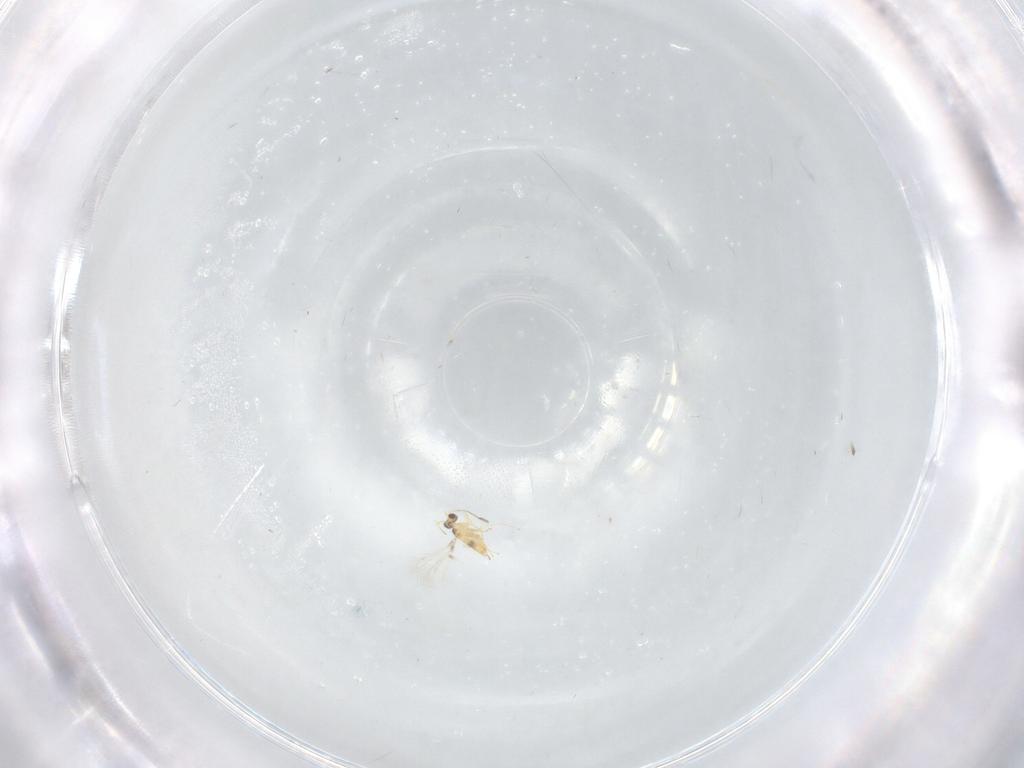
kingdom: Animalia
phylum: Arthropoda
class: Insecta
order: Hymenoptera
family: Mymaridae
